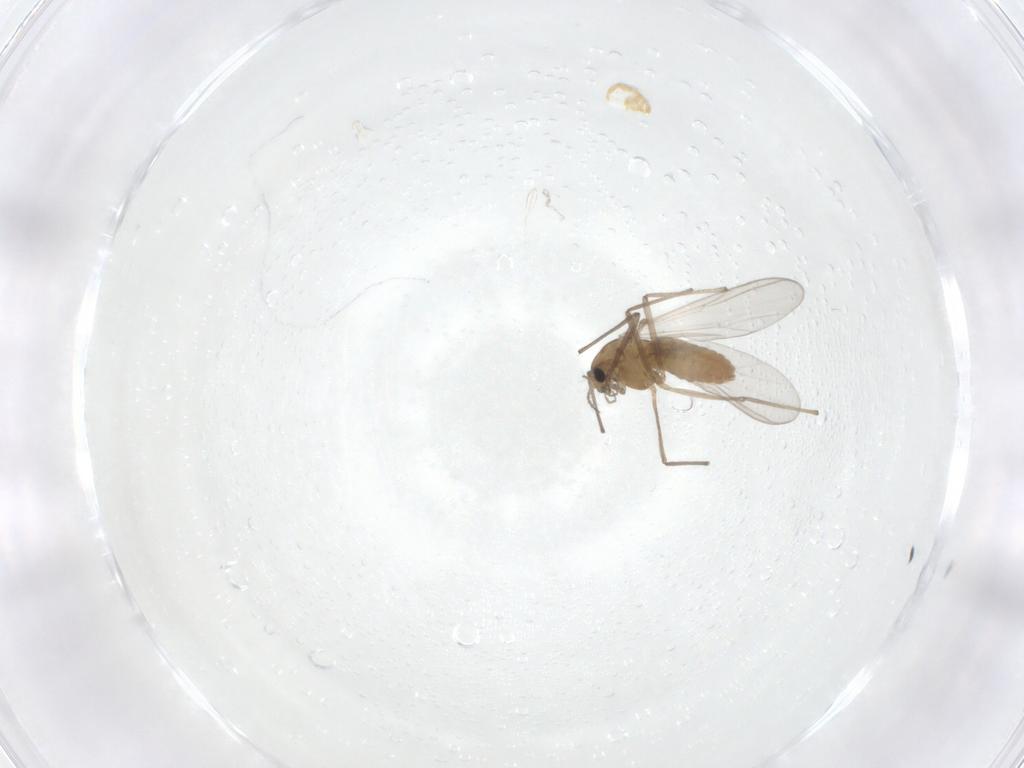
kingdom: Animalia
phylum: Arthropoda
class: Insecta
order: Diptera
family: Chironomidae
